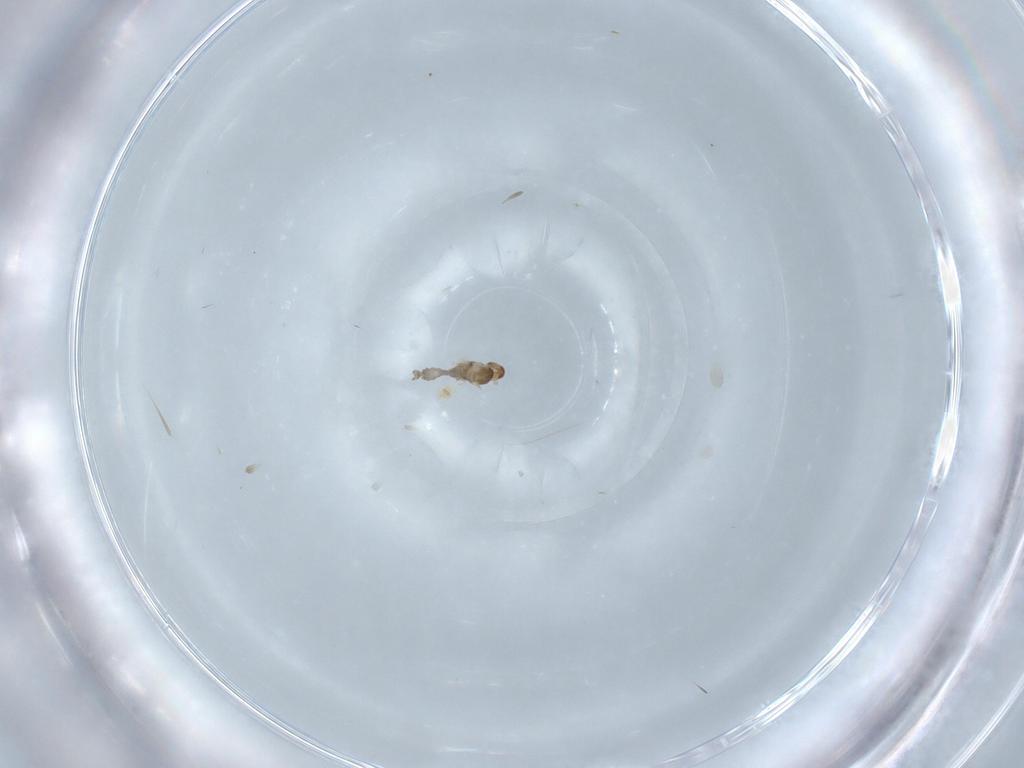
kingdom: Animalia
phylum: Arthropoda
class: Insecta
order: Diptera
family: Cecidomyiidae
